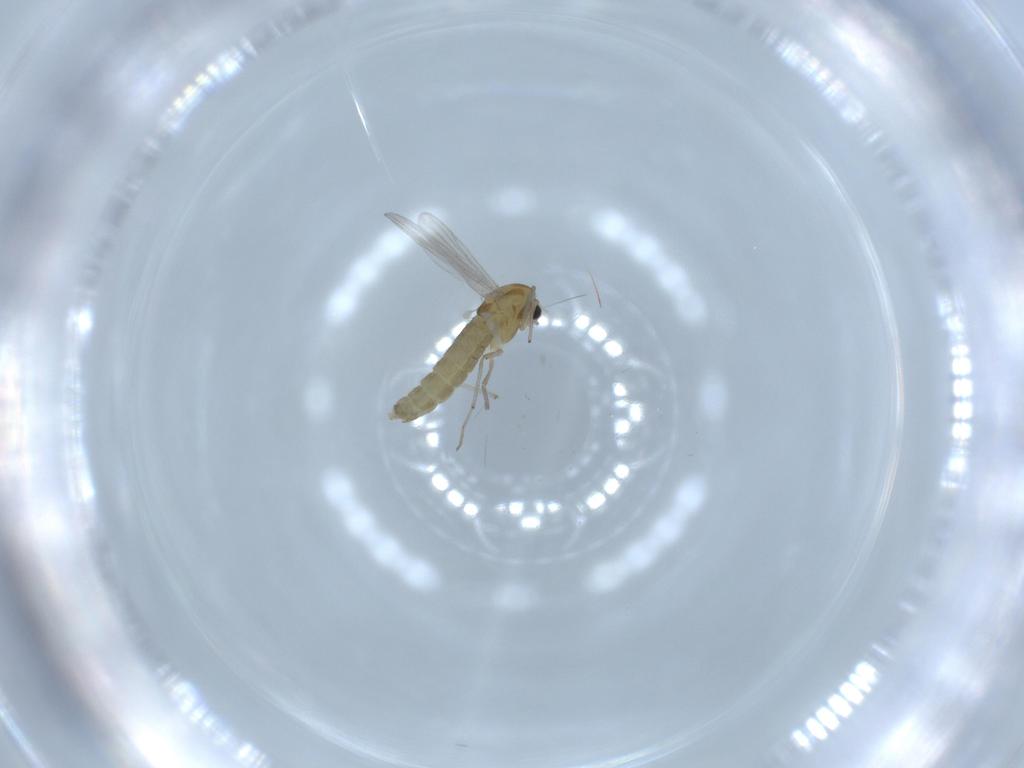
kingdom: Animalia
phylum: Arthropoda
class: Insecta
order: Diptera
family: Chironomidae
